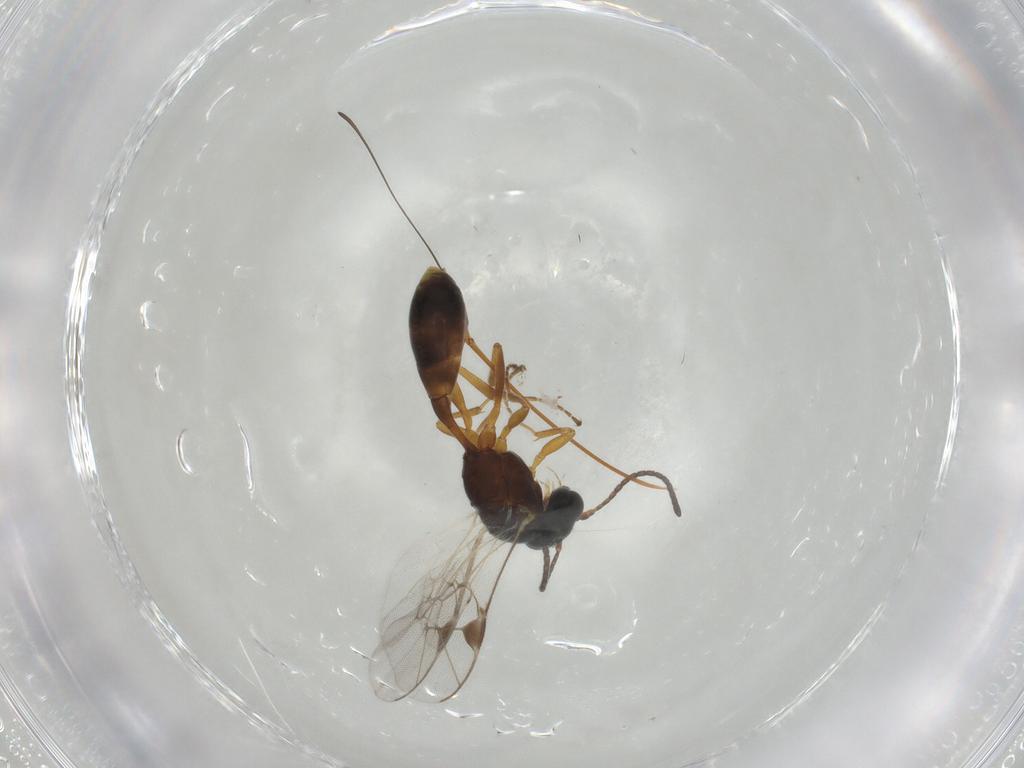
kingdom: Animalia
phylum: Arthropoda
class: Insecta
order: Hymenoptera
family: Ichneumonidae
